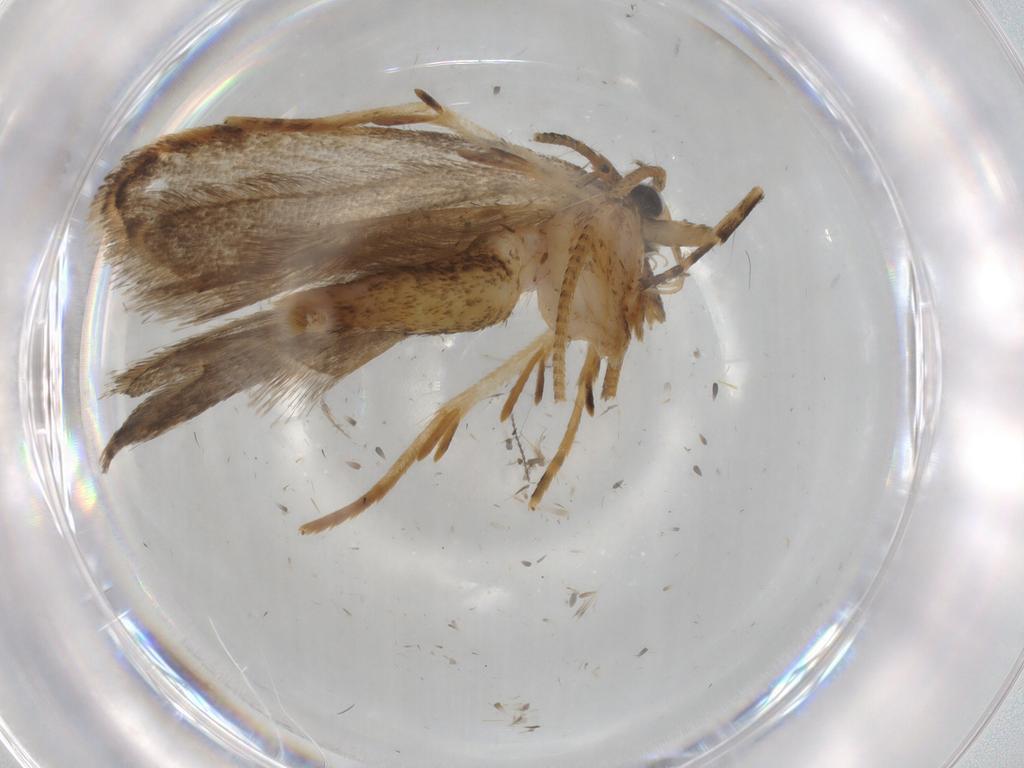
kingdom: Animalia
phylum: Arthropoda
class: Insecta
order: Lepidoptera
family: Autostichidae
